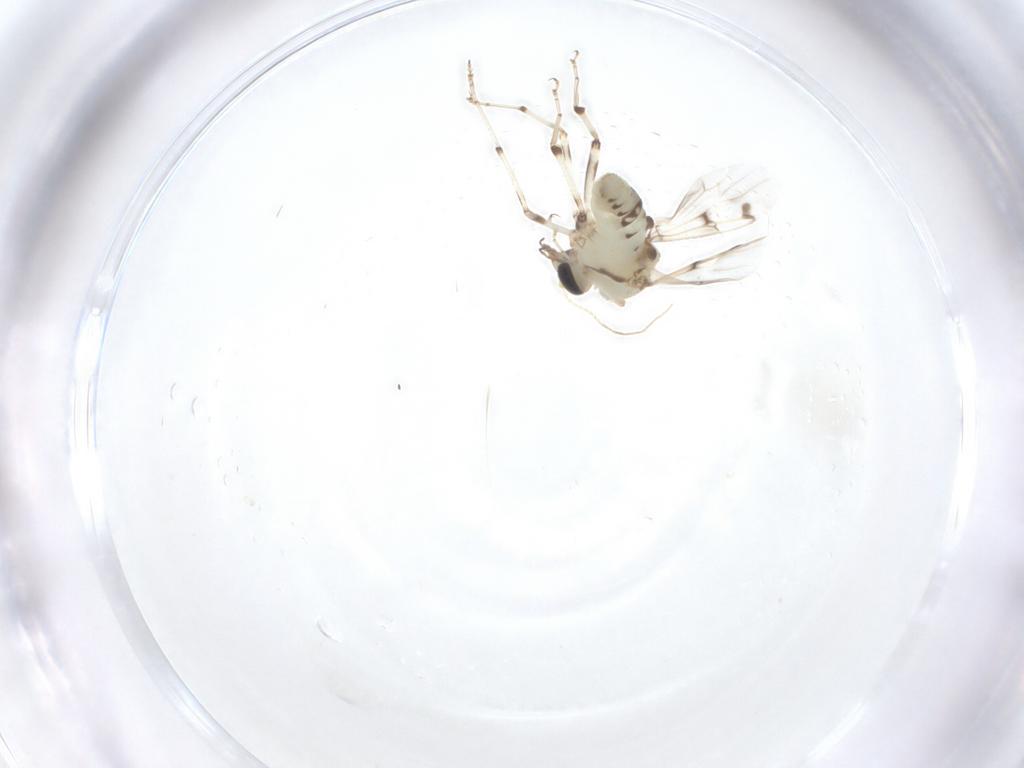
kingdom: Animalia
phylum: Arthropoda
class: Insecta
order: Diptera
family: Ceratopogonidae
